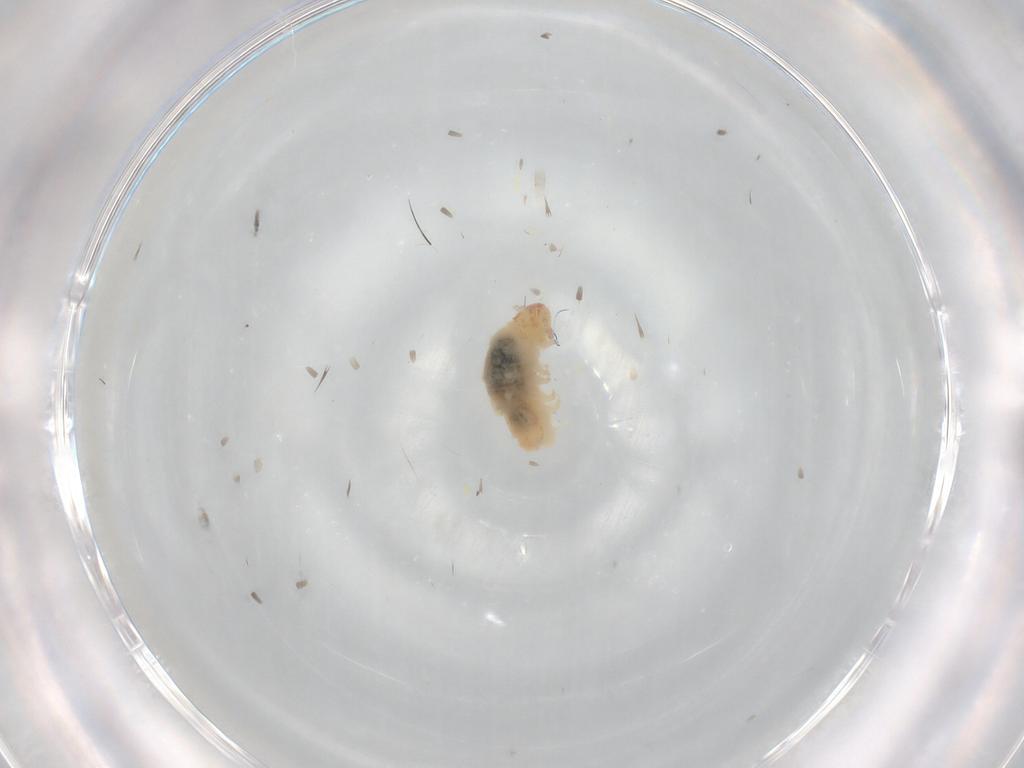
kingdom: Animalia
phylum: Arthropoda
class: Diplopoda
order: Polyxenida
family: Polyxenidae
